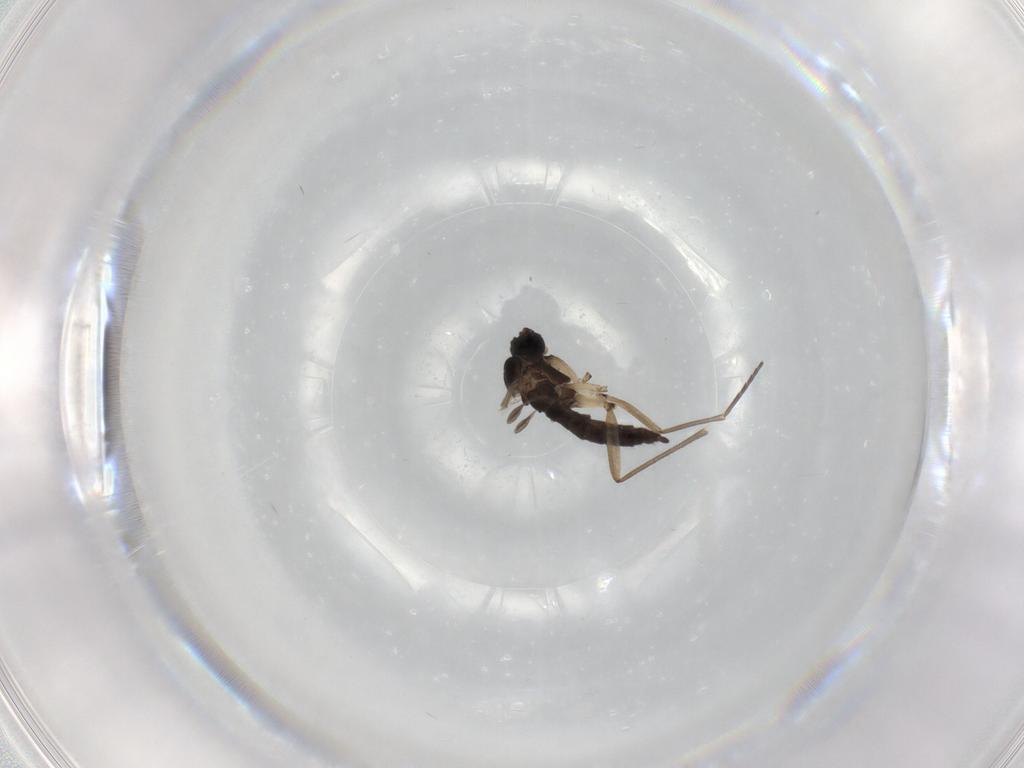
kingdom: Animalia
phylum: Arthropoda
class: Insecta
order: Diptera
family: Sciaridae
